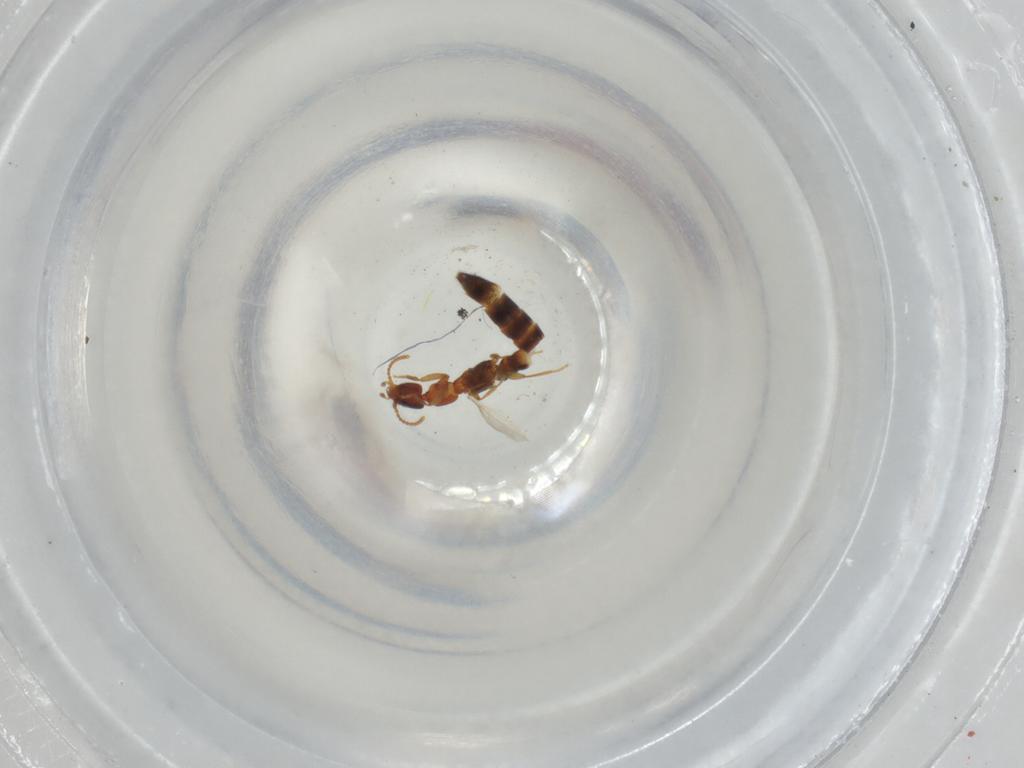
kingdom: Animalia
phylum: Arthropoda
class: Insecta
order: Coleoptera
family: Staphylinidae
